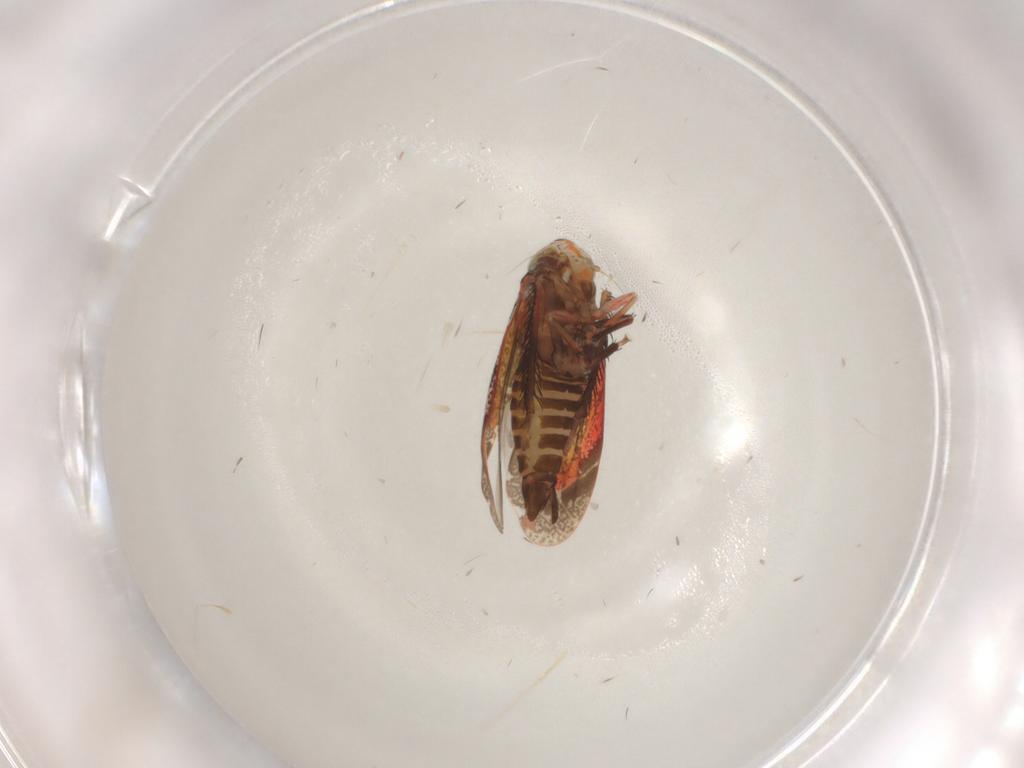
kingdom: Animalia
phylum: Arthropoda
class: Insecta
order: Hemiptera
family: Cicadellidae
